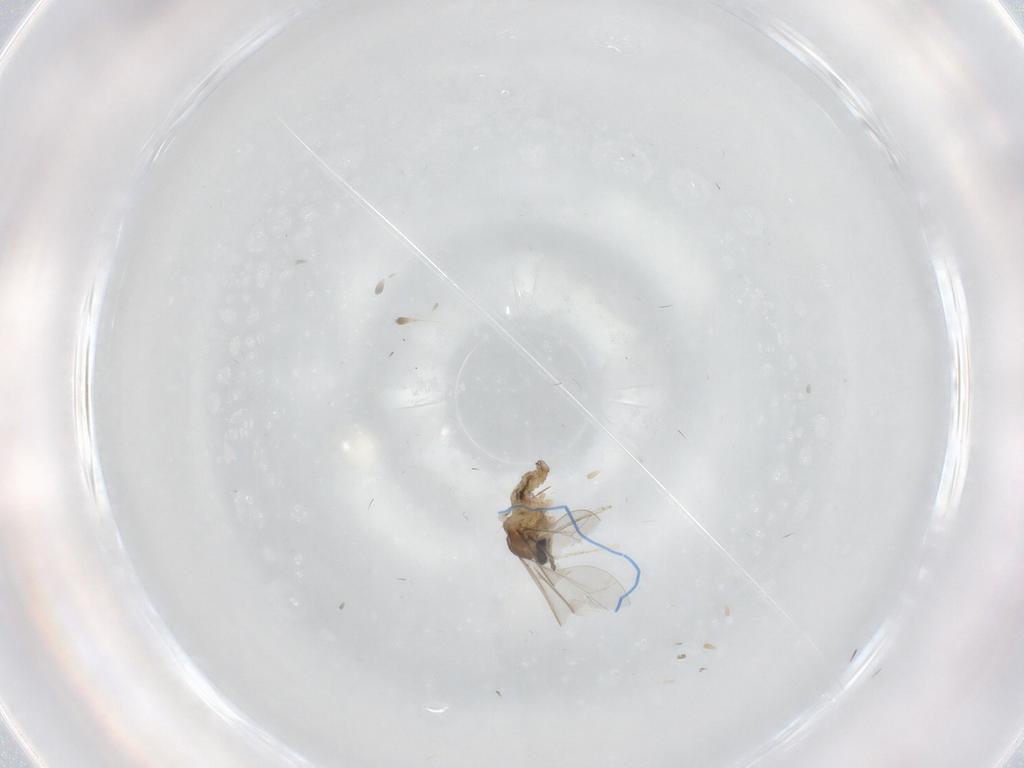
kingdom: Animalia
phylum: Arthropoda
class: Insecta
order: Diptera
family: Cecidomyiidae
